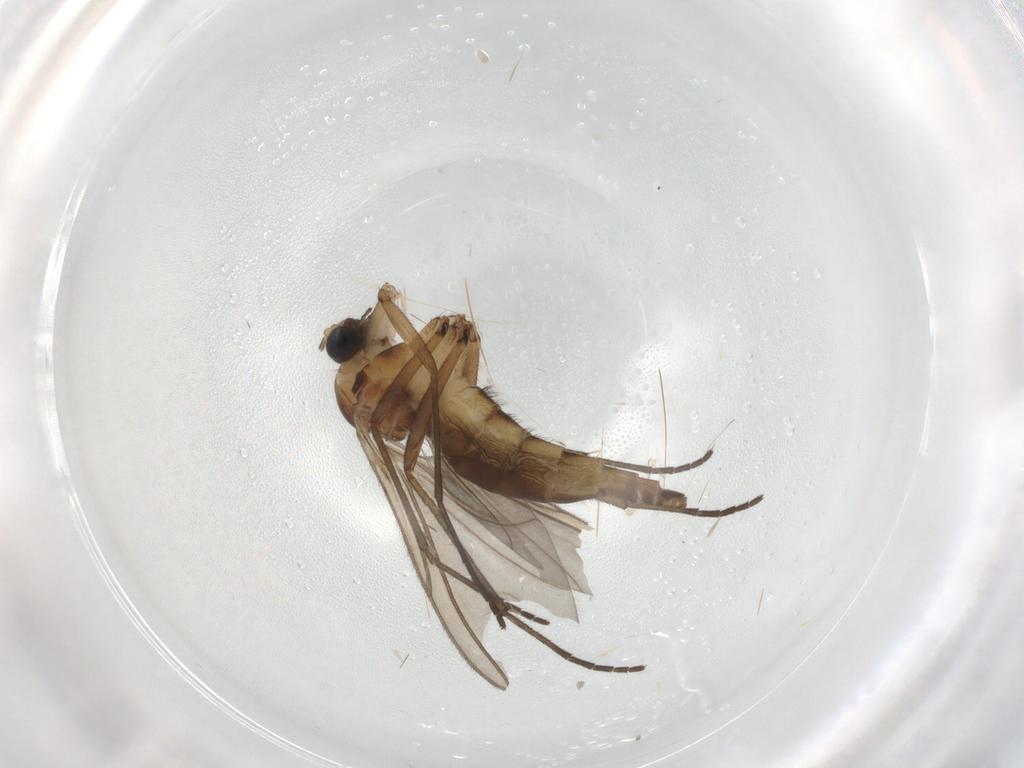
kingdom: Animalia
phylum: Arthropoda
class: Insecta
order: Diptera
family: Sciaridae
